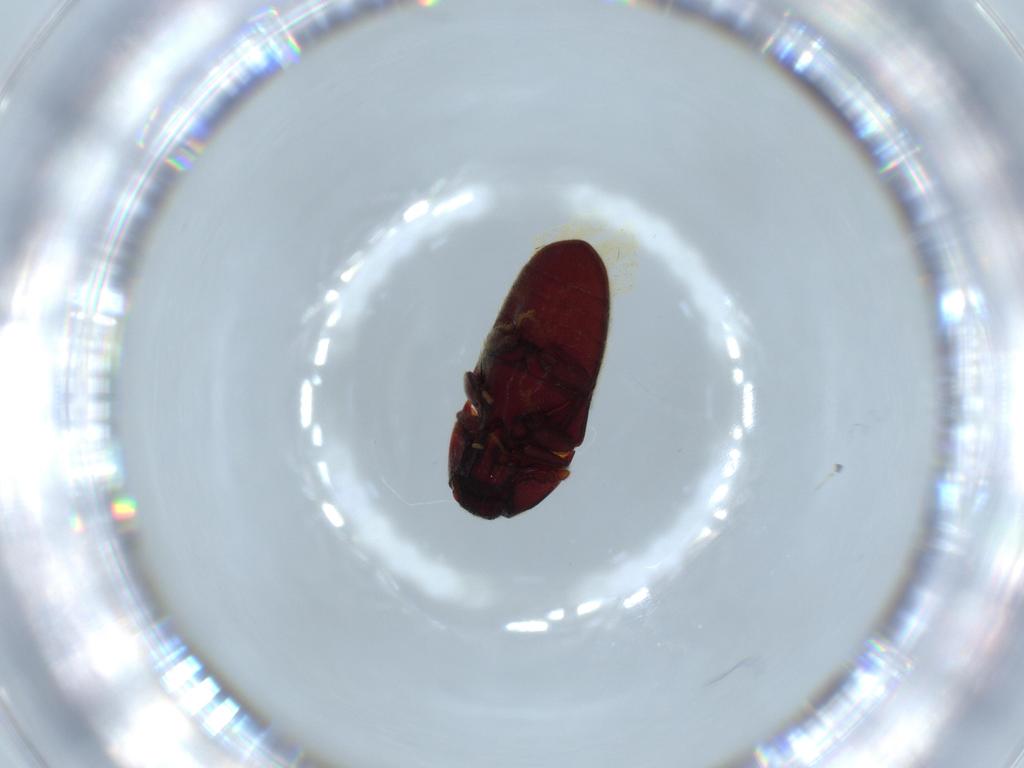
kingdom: Animalia
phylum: Arthropoda
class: Insecta
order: Coleoptera
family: Throscidae
